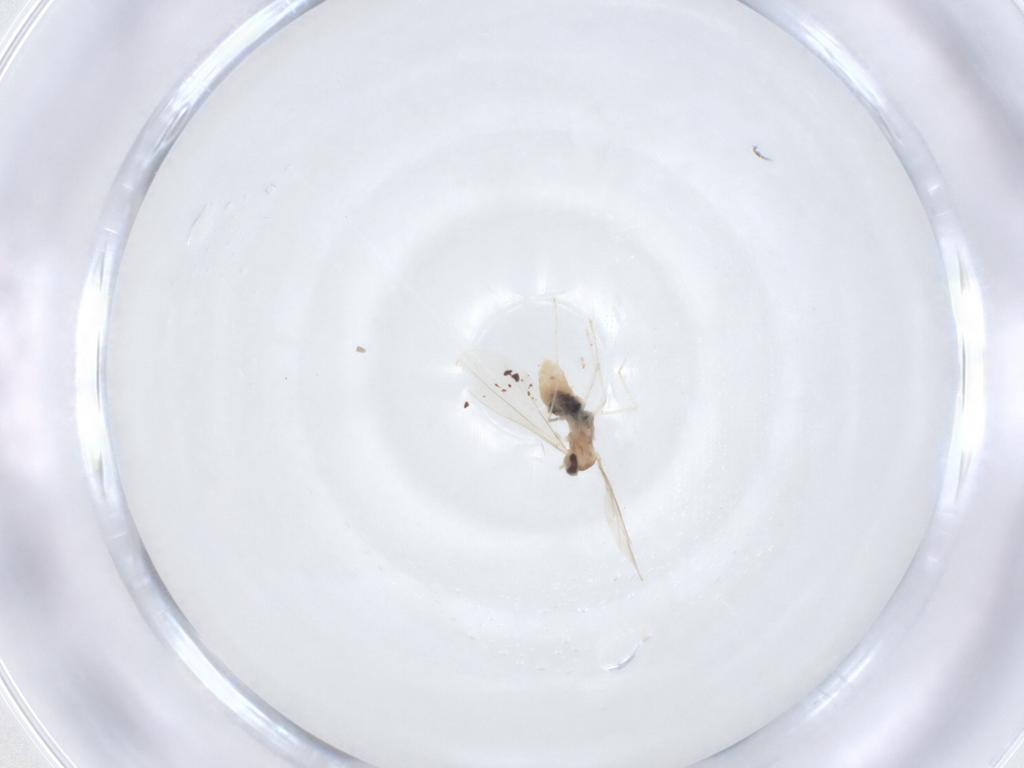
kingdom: Animalia
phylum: Arthropoda
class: Insecta
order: Diptera
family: Cecidomyiidae
